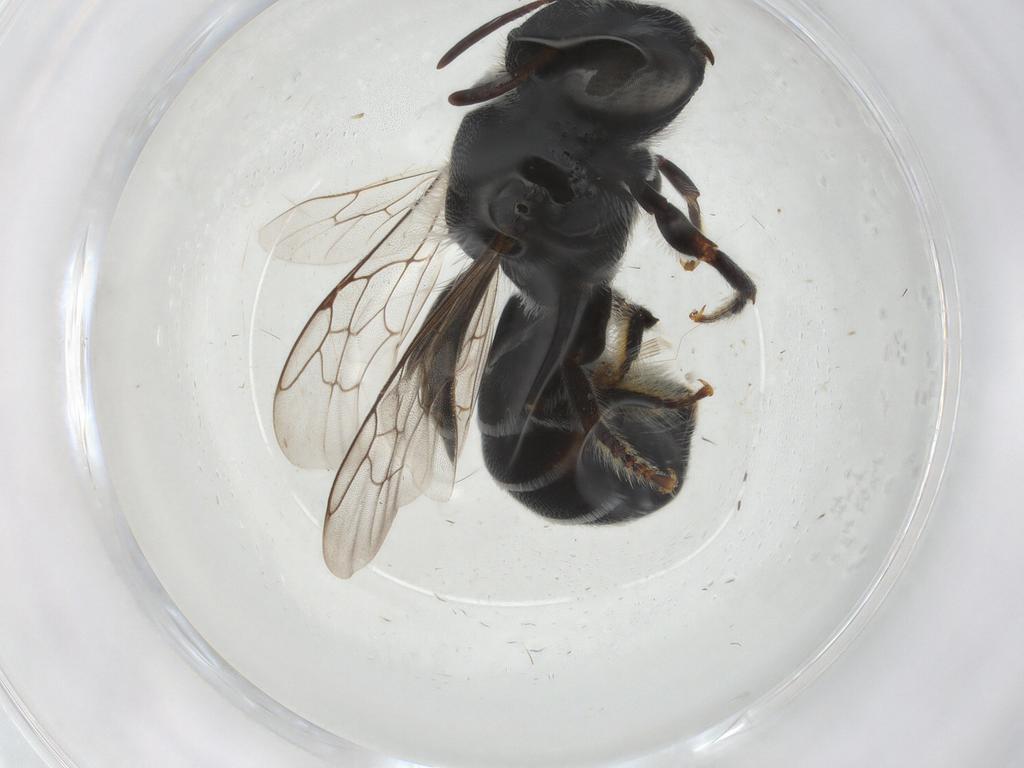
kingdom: Animalia
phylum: Arthropoda
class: Insecta
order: Hymenoptera
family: Megachilidae
